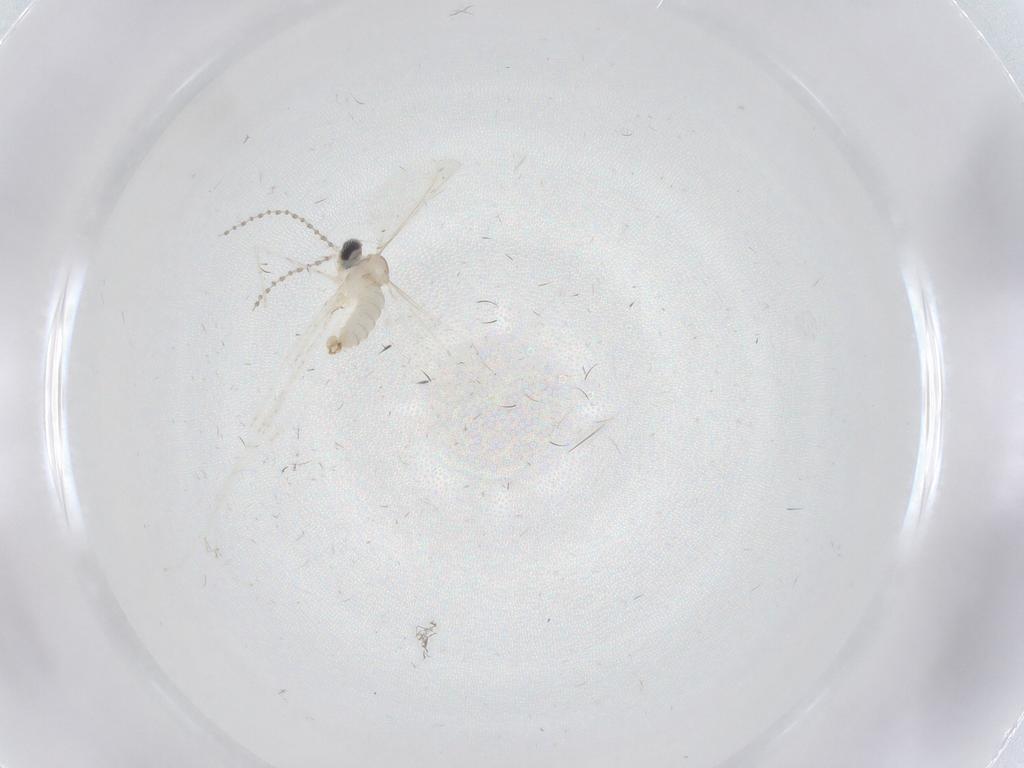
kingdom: Animalia
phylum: Arthropoda
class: Insecta
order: Diptera
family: Cecidomyiidae
